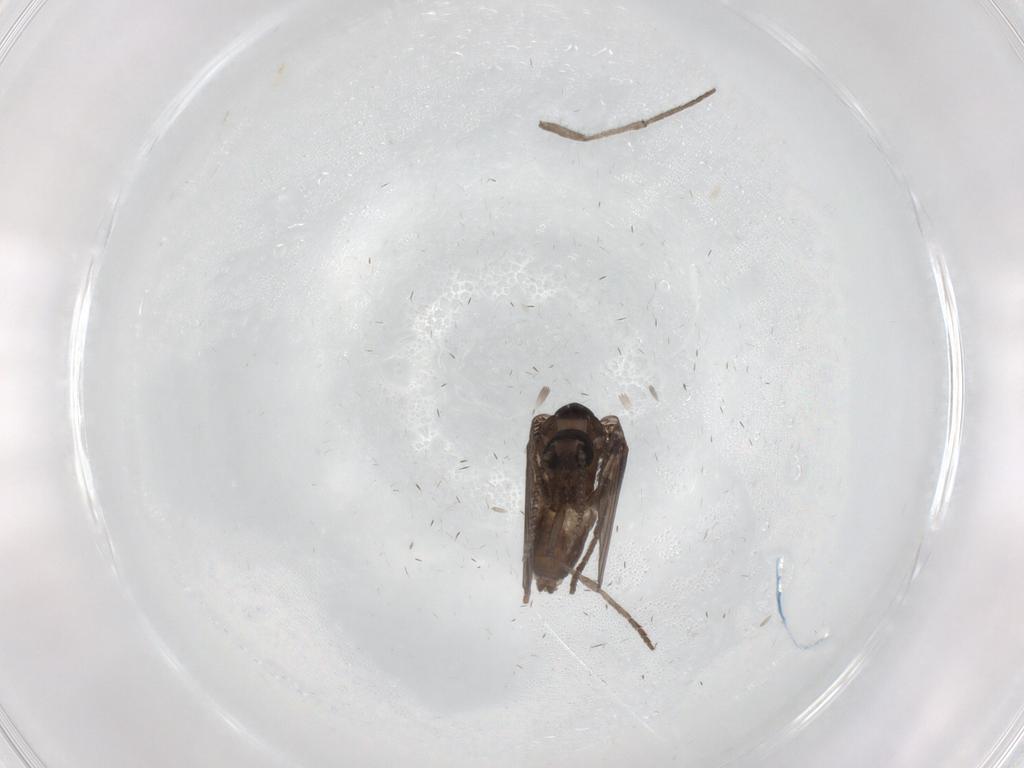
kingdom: Animalia
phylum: Arthropoda
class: Insecta
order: Diptera
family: Psychodidae
